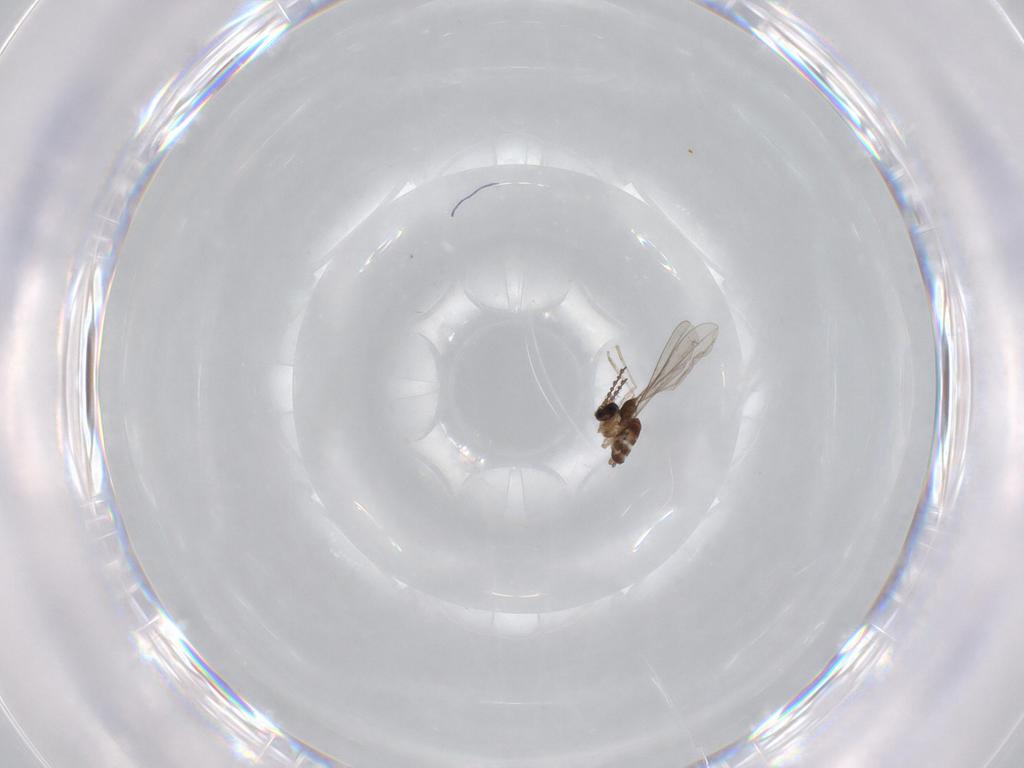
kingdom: Animalia
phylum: Arthropoda
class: Insecta
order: Diptera
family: Cecidomyiidae
